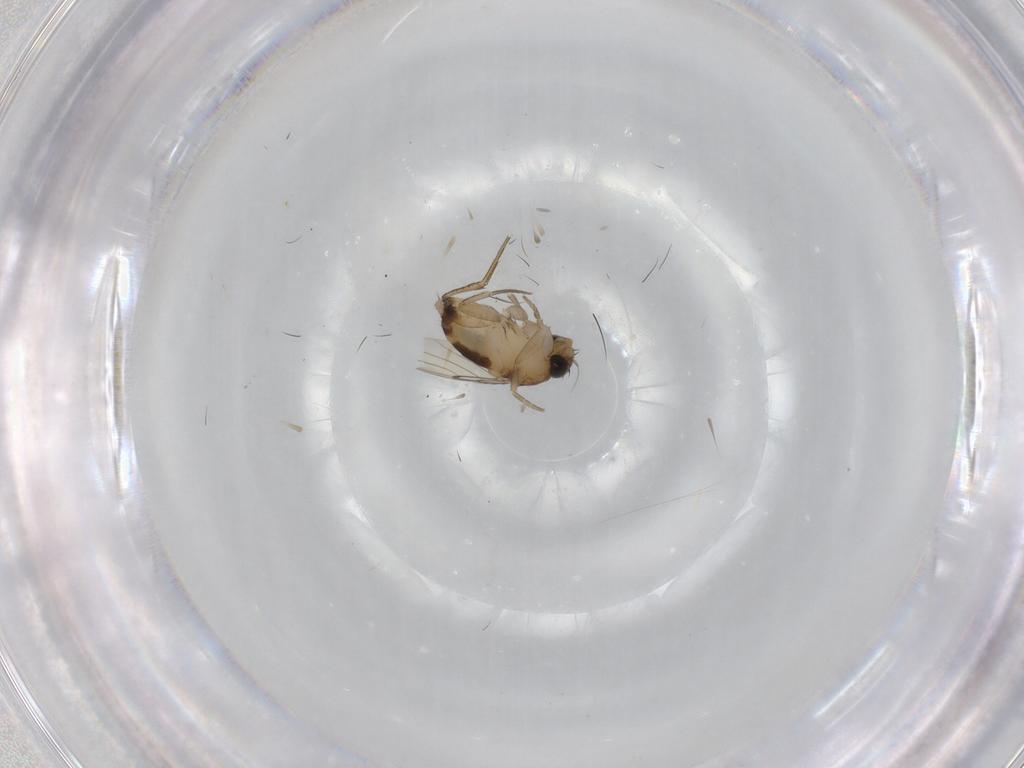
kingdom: Animalia
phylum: Arthropoda
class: Insecta
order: Diptera
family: Phoridae
